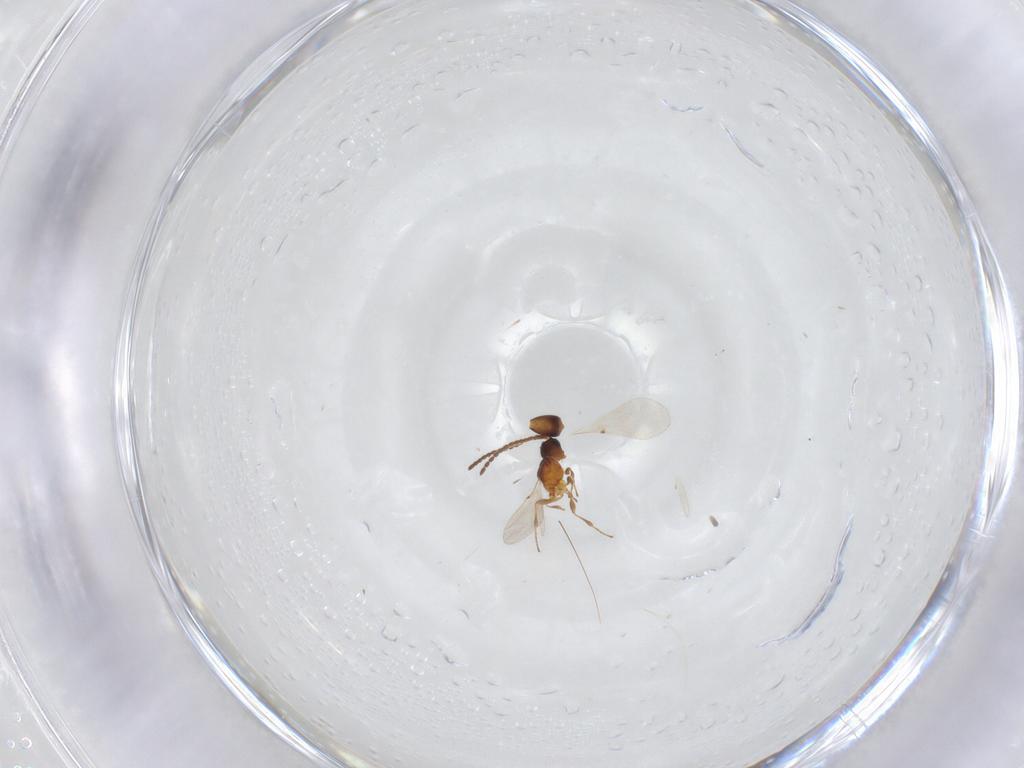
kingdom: Animalia
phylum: Arthropoda
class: Insecta
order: Hymenoptera
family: Diapriidae
